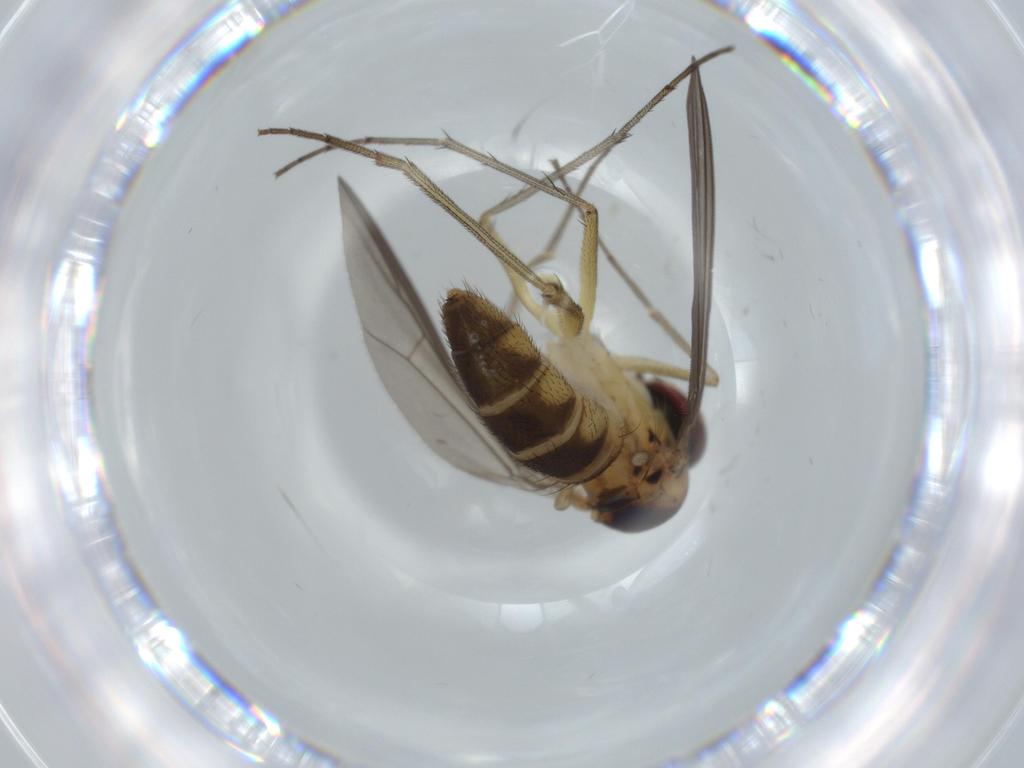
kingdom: Animalia
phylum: Arthropoda
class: Insecta
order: Diptera
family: Dolichopodidae
